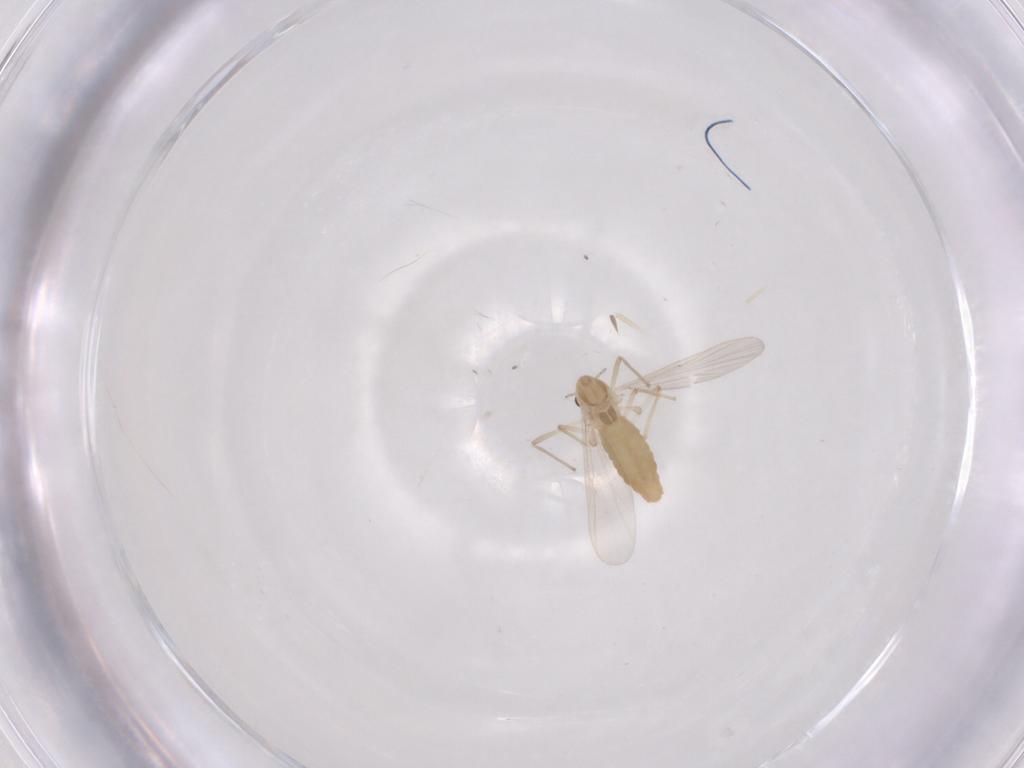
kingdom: Animalia
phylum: Arthropoda
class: Insecta
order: Diptera
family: Chironomidae
